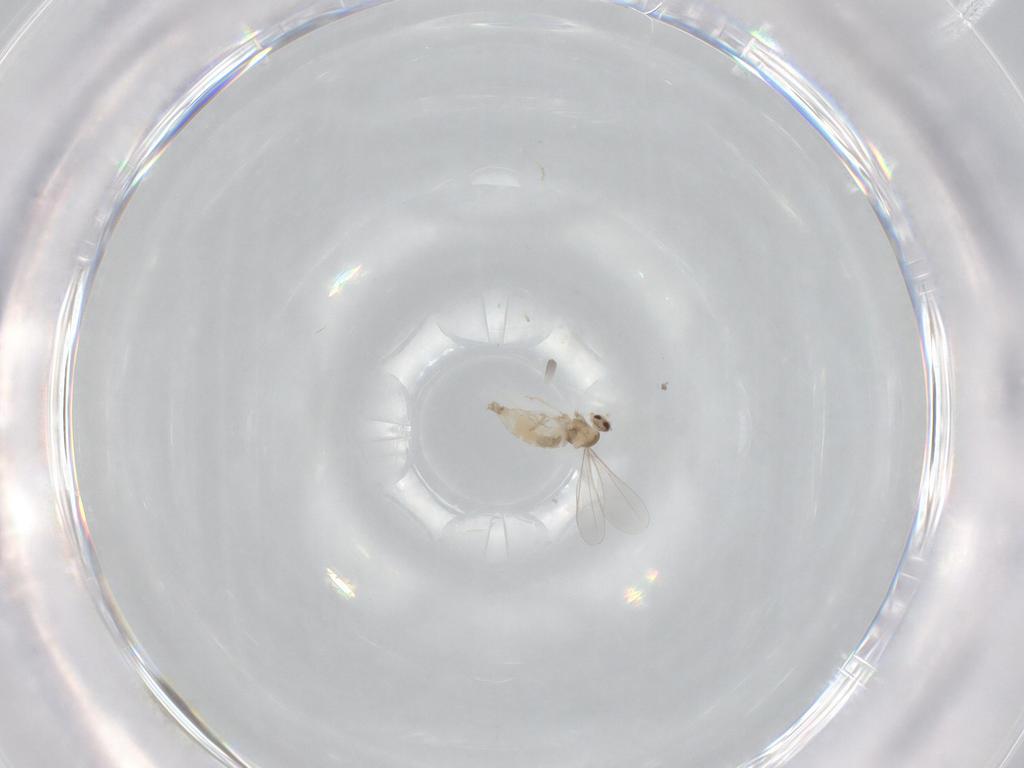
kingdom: Animalia
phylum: Arthropoda
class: Insecta
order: Diptera
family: Cecidomyiidae
